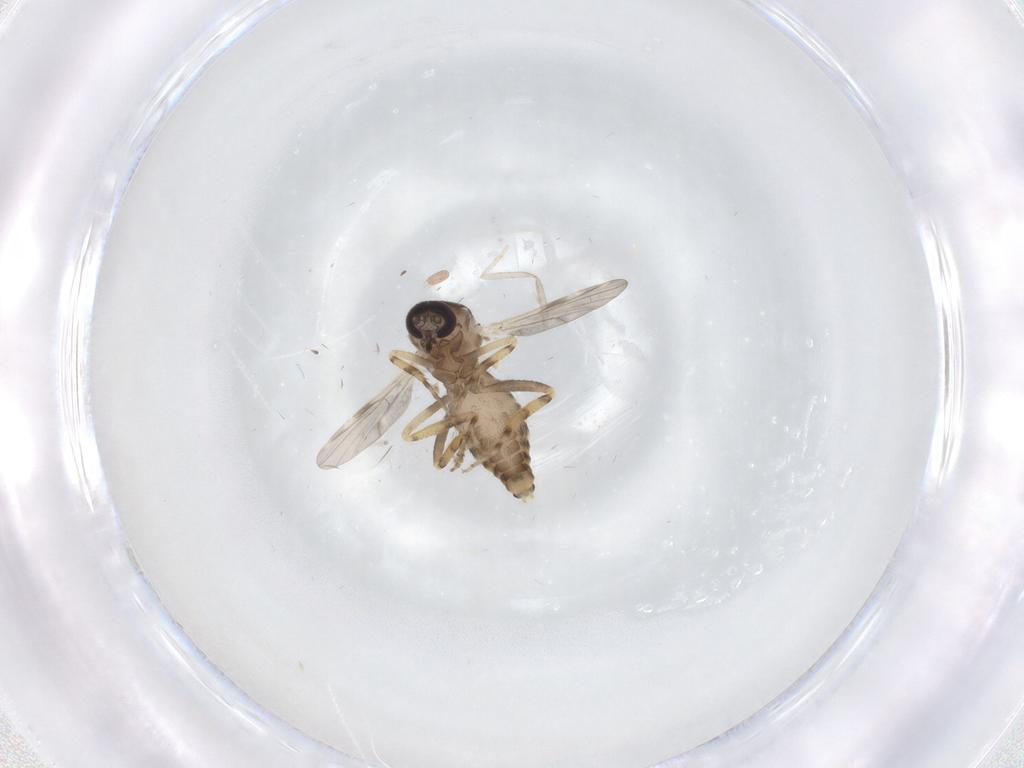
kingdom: Animalia
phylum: Arthropoda
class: Insecta
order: Diptera
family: Ceratopogonidae
